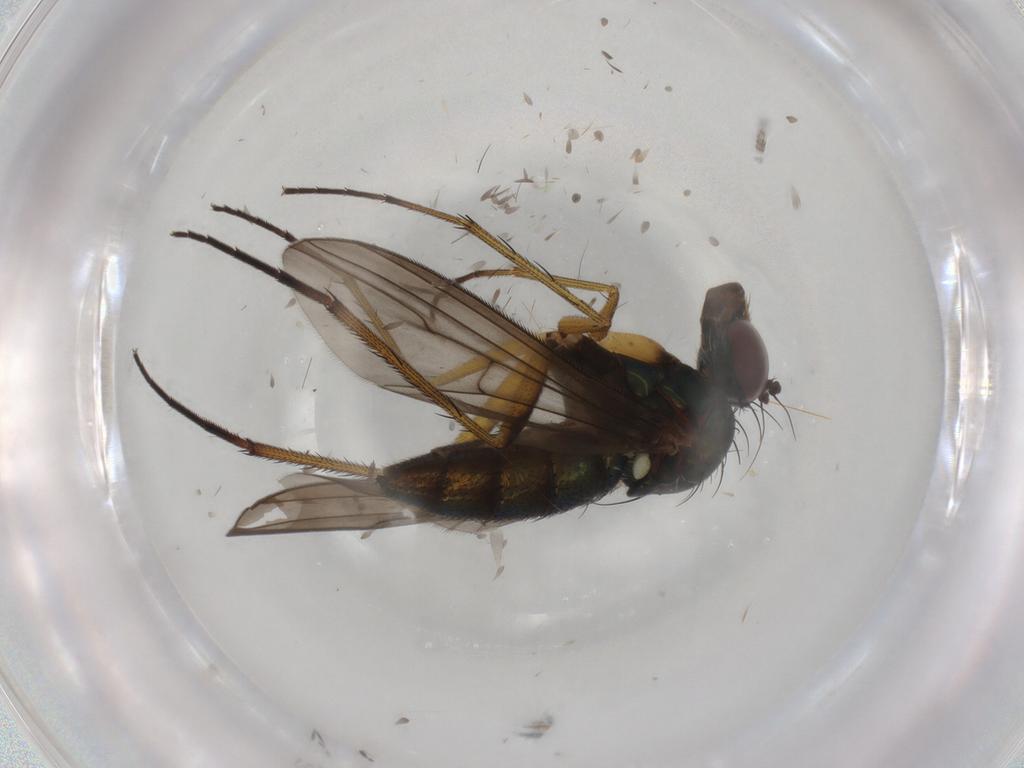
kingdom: Animalia
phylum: Arthropoda
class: Insecta
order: Diptera
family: Dolichopodidae
